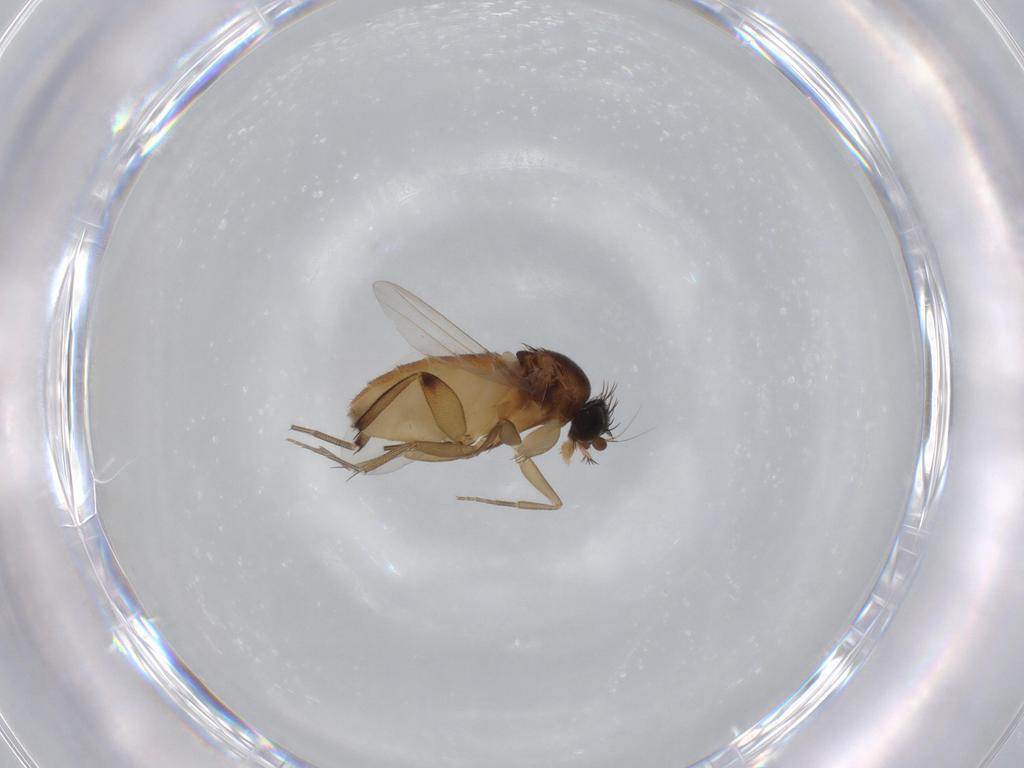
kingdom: Animalia
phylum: Arthropoda
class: Insecta
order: Diptera
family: Phoridae
